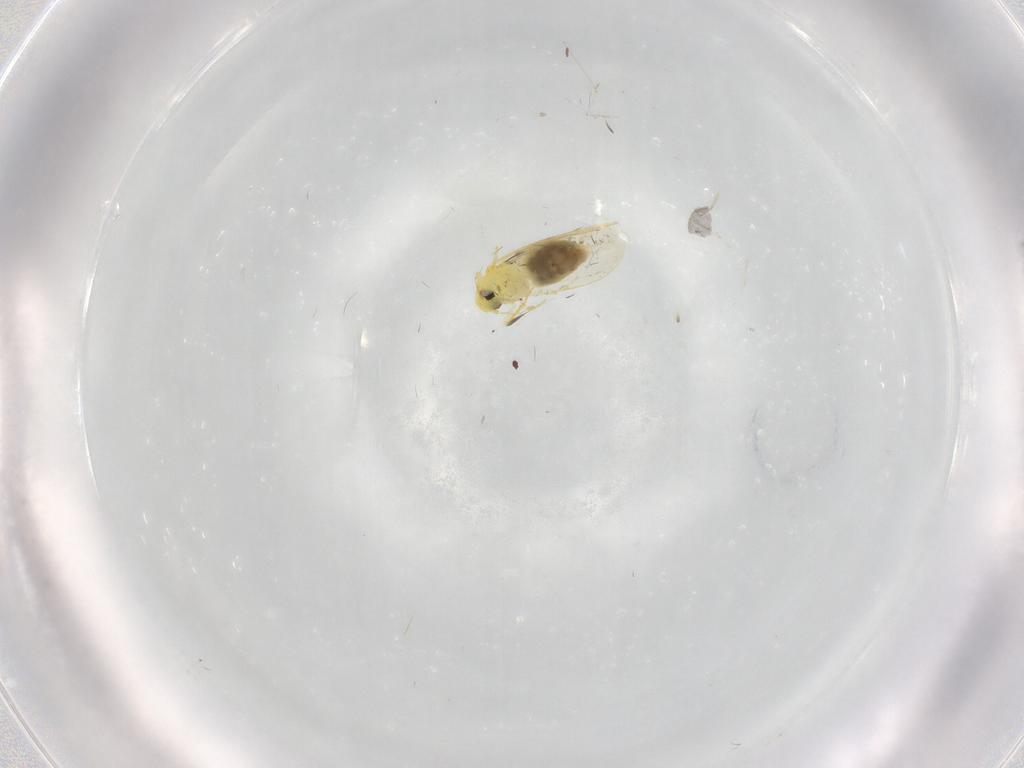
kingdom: Animalia
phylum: Arthropoda
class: Insecta
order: Hemiptera
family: Aleyrodidae
